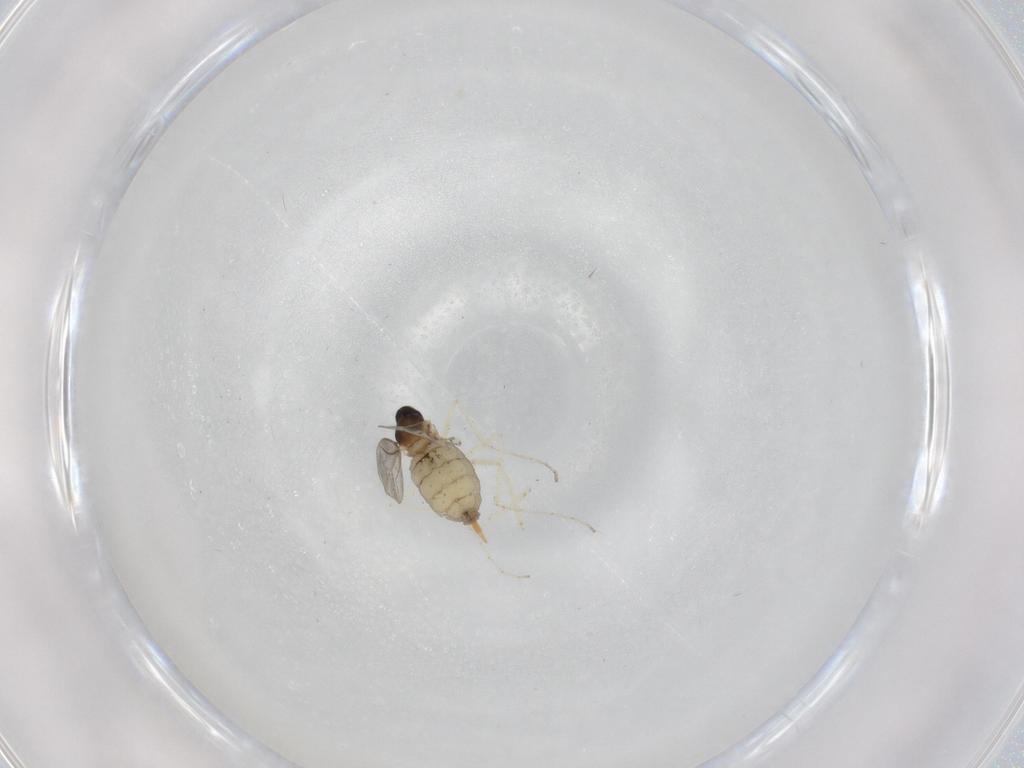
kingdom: Animalia
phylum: Arthropoda
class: Insecta
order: Diptera
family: Cecidomyiidae
